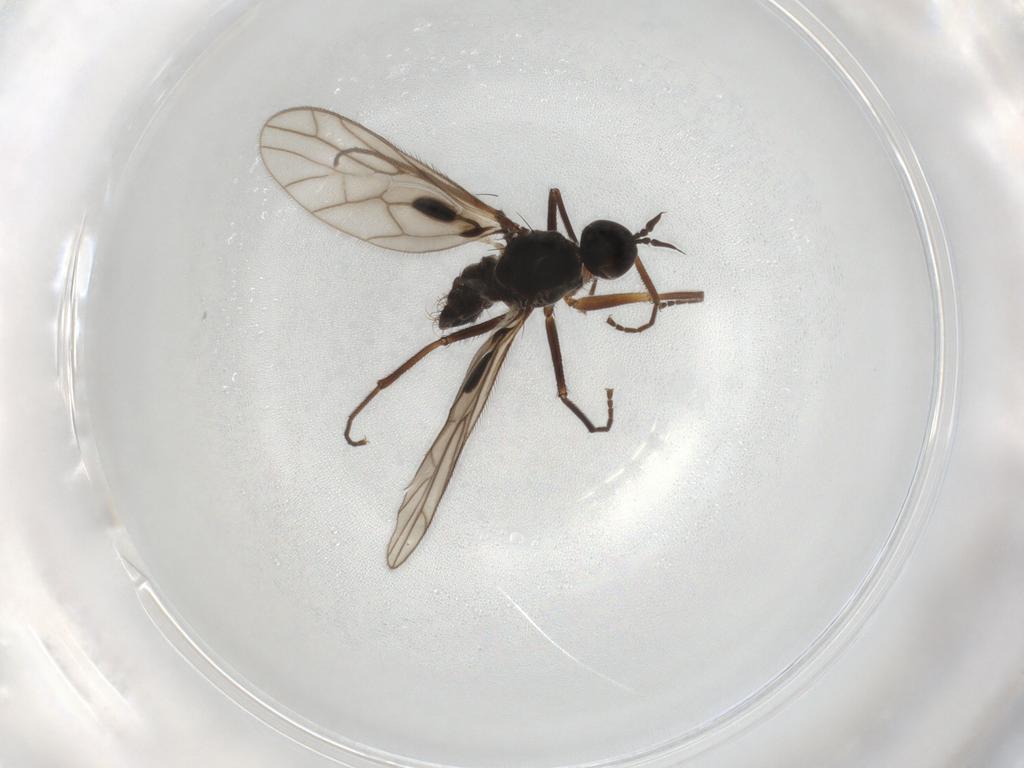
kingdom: Animalia
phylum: Arthropoda
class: Insecta
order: Diptera
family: Empididae
